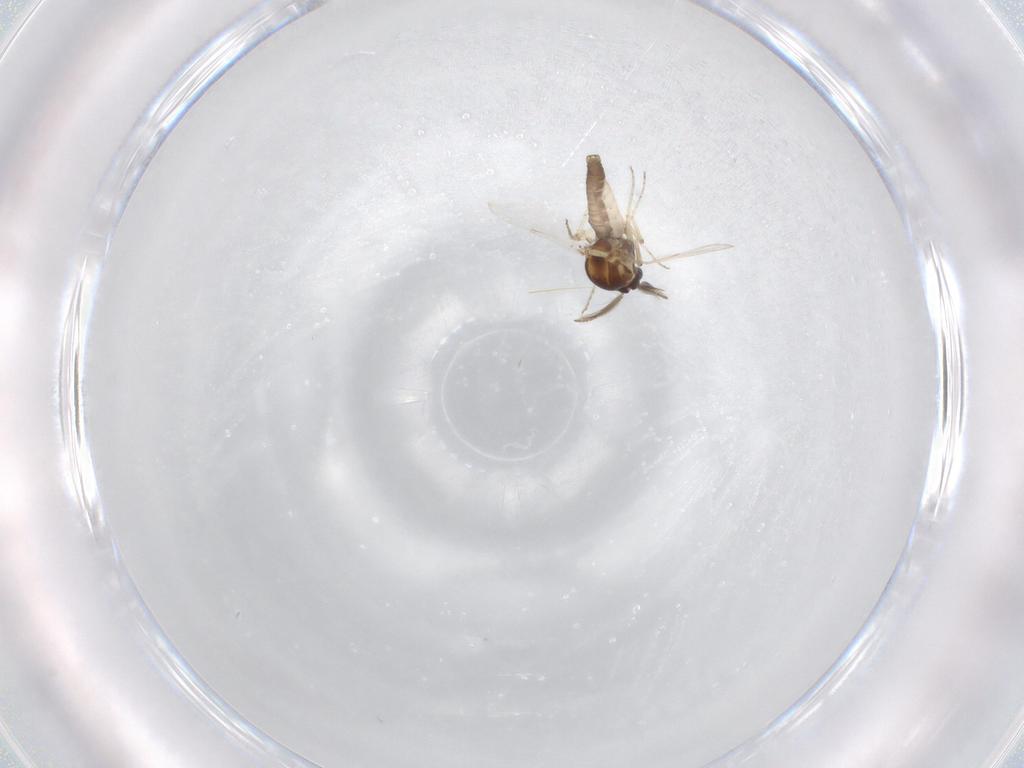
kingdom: Animalia
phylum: Arthropoda
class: Insecta
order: Diptera
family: Ceratopogonidae
